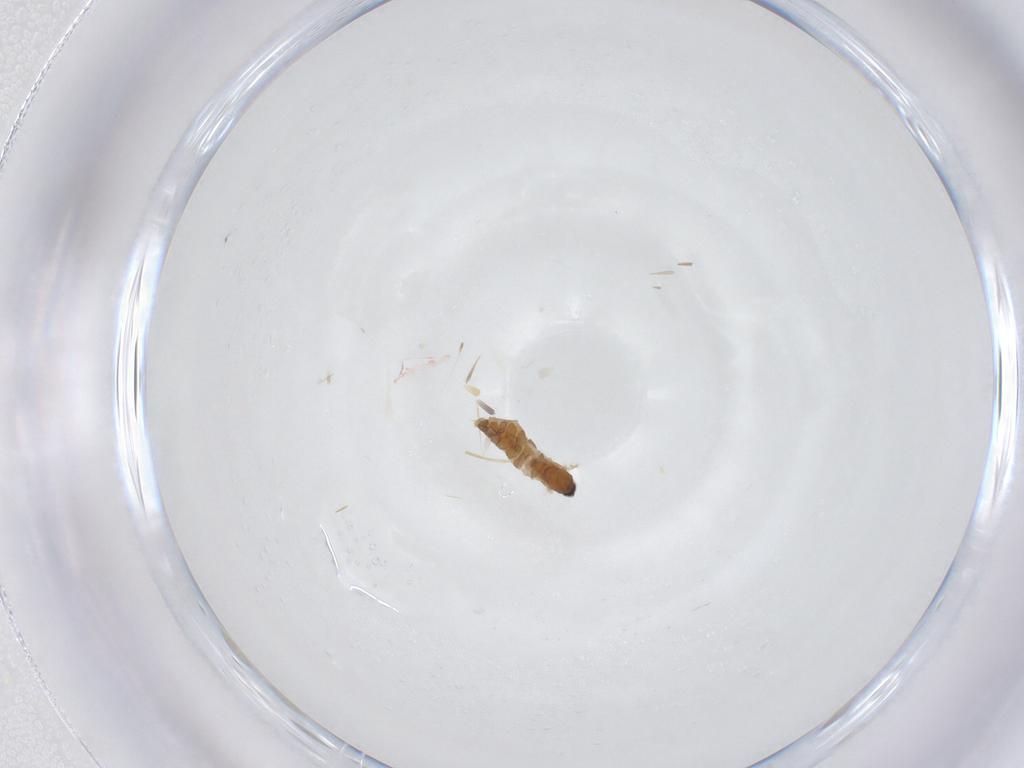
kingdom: Animalia
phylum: Arthropoda
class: Insecta
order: Diptera
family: Cecidomyiidae
